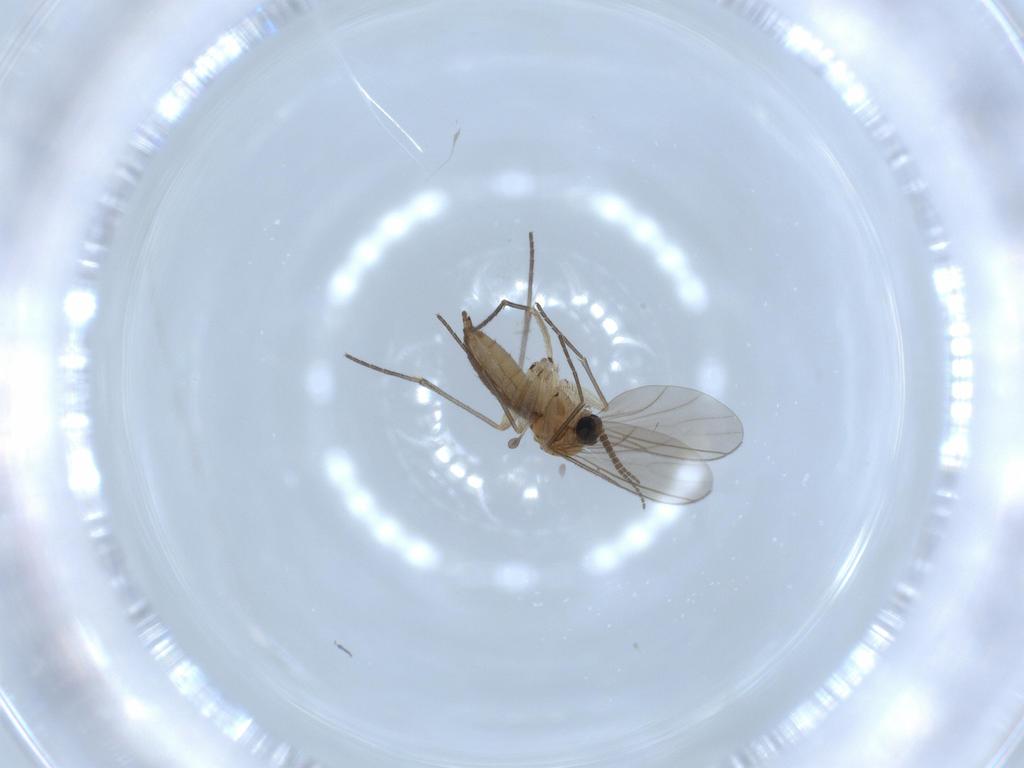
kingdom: Animalia
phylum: Arthropoda
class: Insecta
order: Diptera
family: Sciaridae
